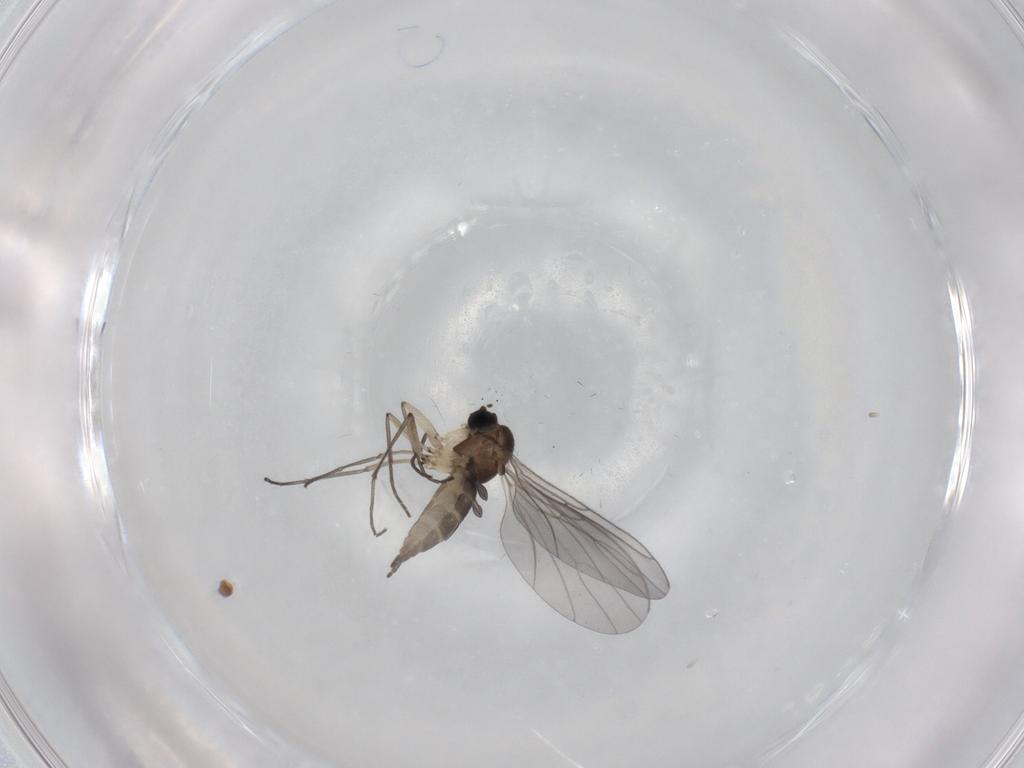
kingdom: Animalia
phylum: Arthropoda
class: Insecta
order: Diptera
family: Sciaridae
